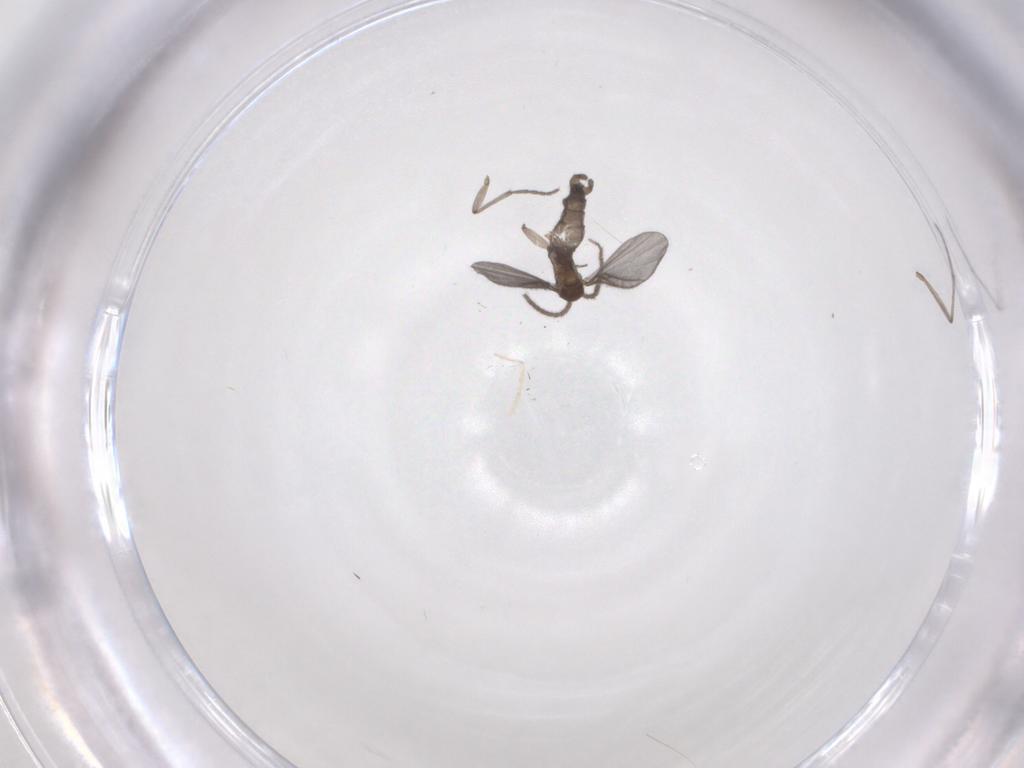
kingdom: Animalia
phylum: Arthropoda
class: Insecta
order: Diptera
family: Sciaridae
